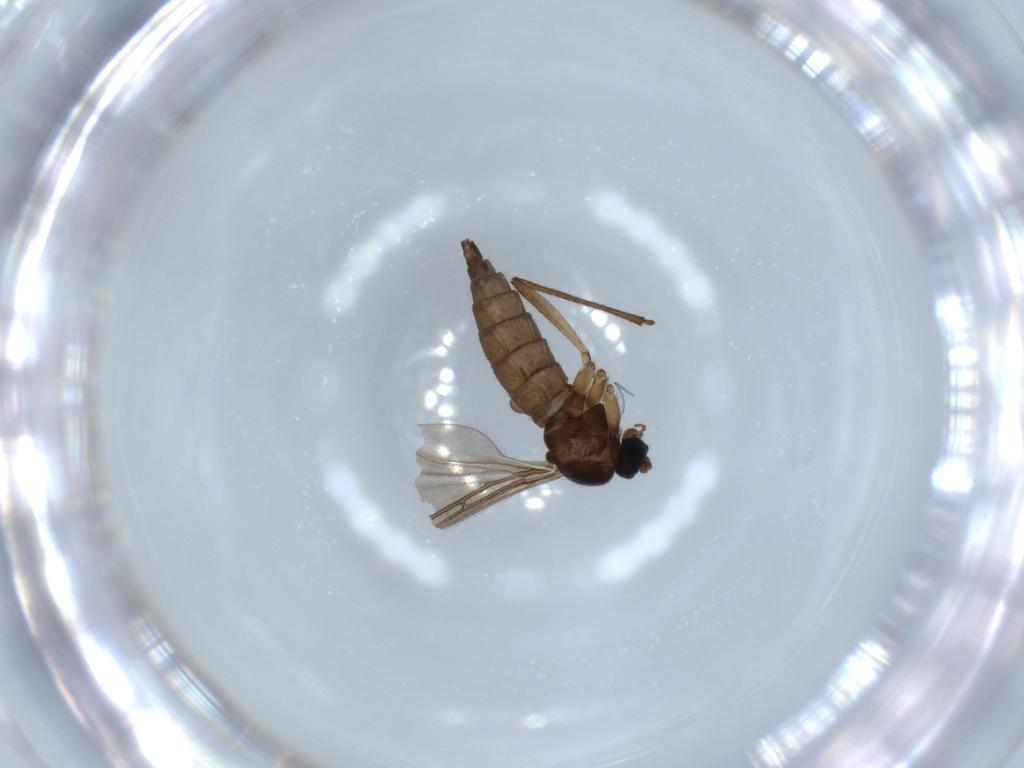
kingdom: Animalia
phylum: Arthropoda
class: Insecta
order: Diptera
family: Sciaridae
